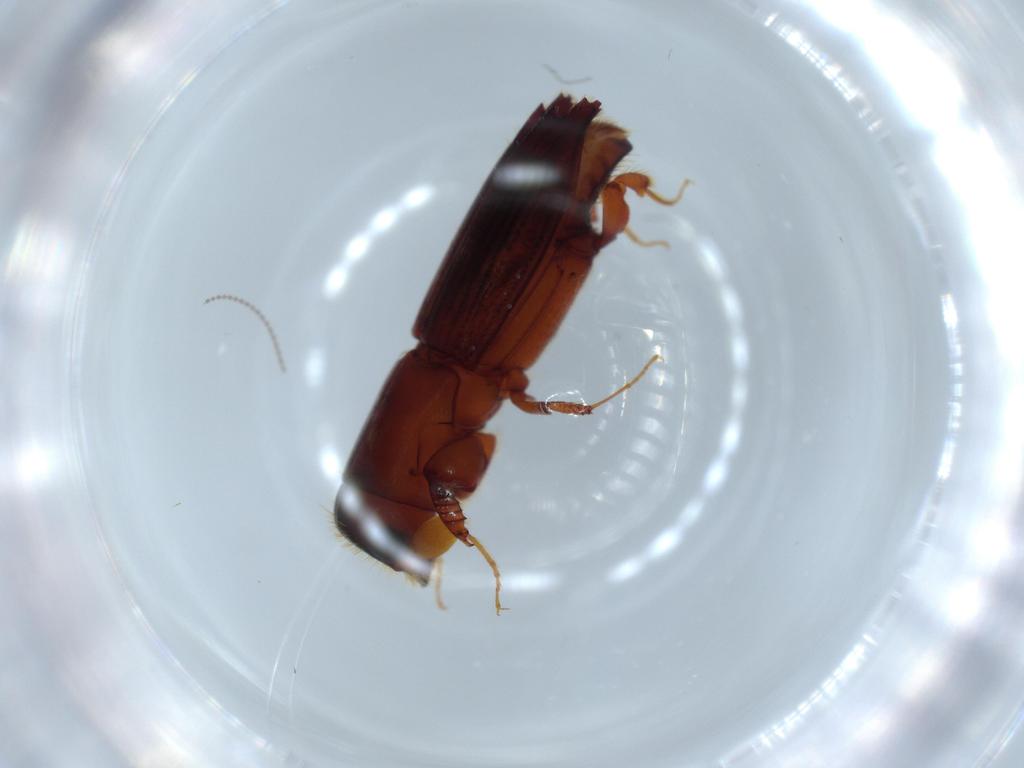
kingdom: Animalia
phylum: Arthropoda
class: Insecta
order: Coleoptera
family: Curculionidae
